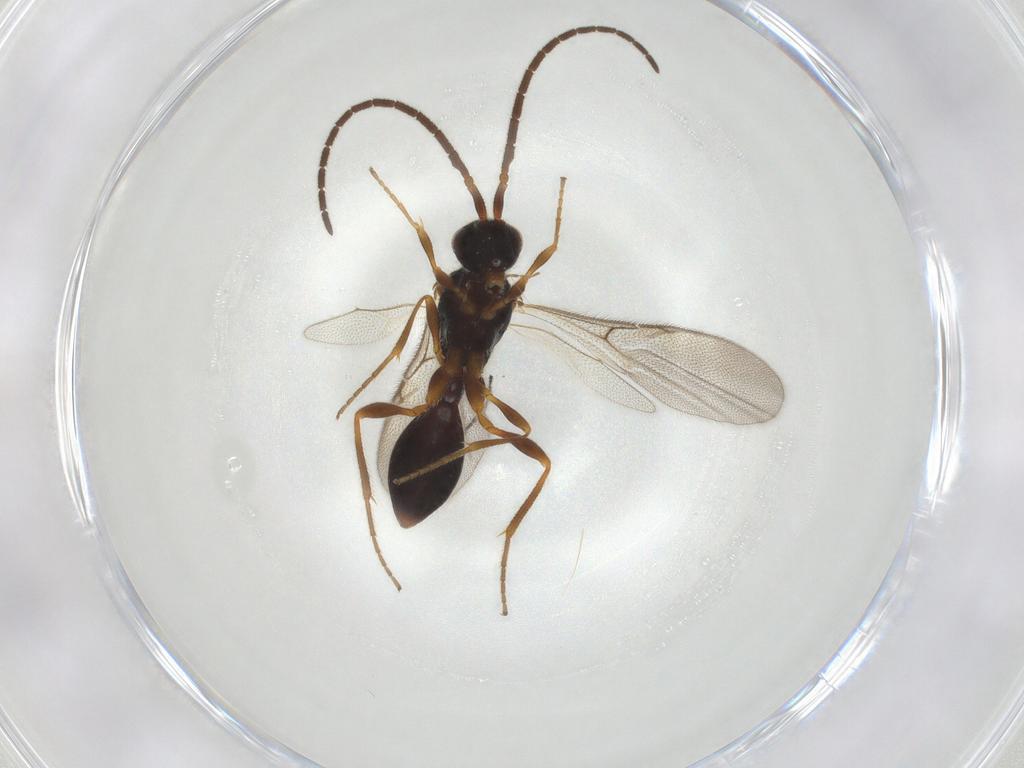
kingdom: Animalia
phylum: Arthropoda
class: Insecta
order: Diptera
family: Sciaridae
